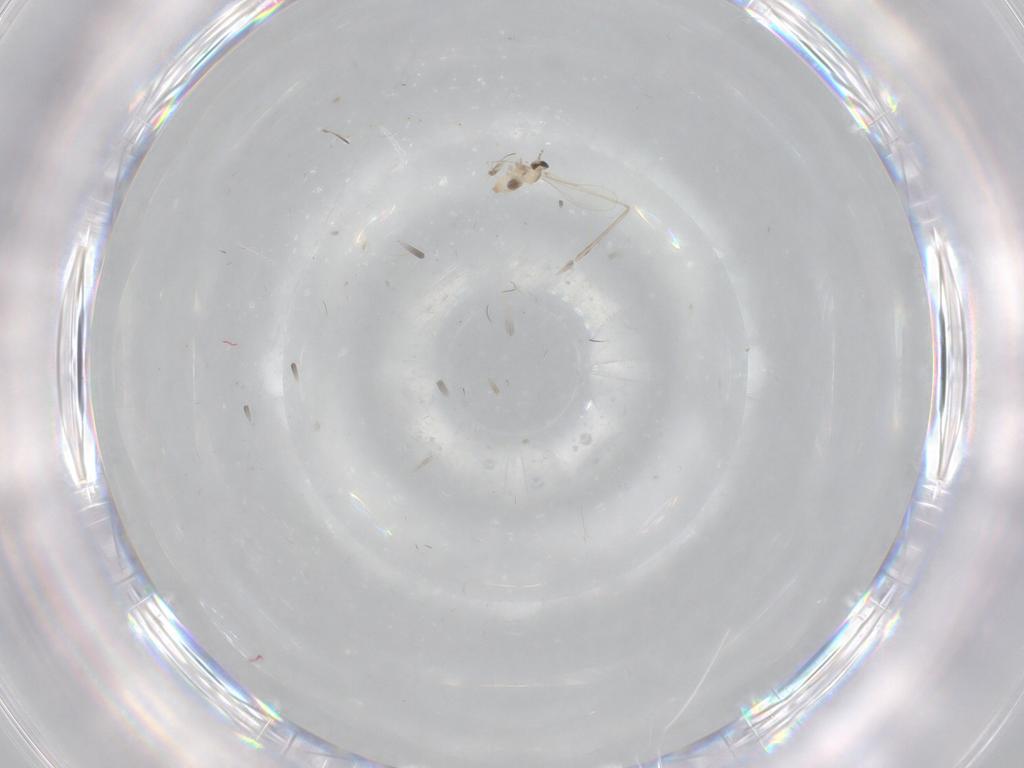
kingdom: Animalia
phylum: Arthropoda
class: Insecta
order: Diptera
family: Cecidomyiidae
